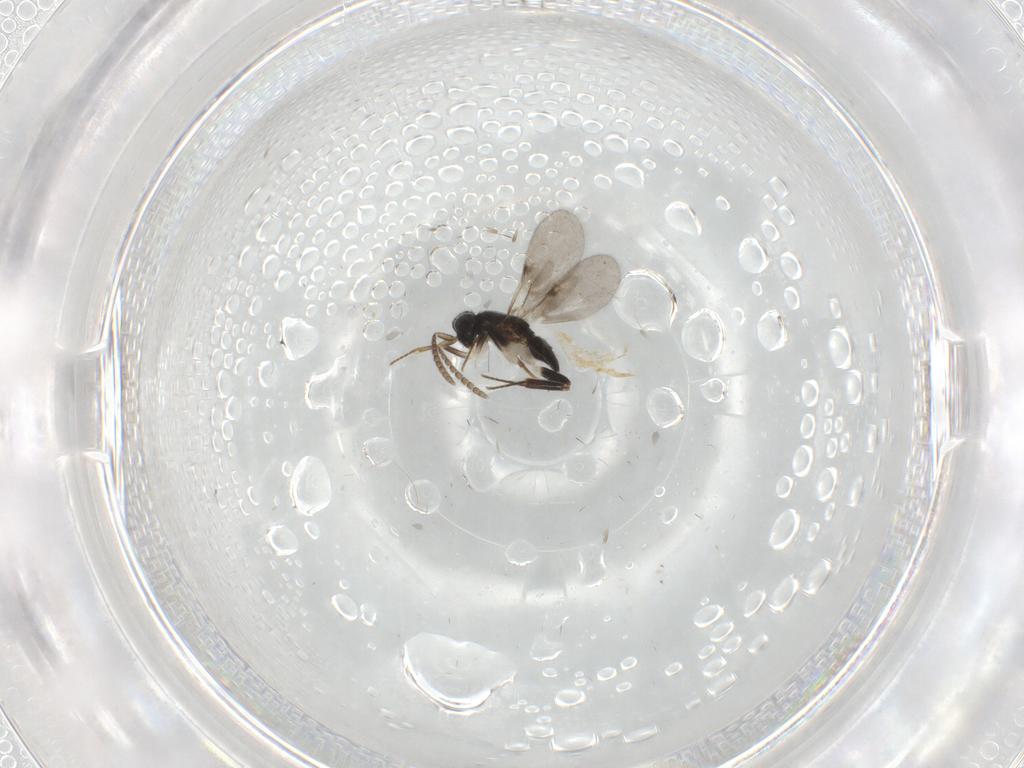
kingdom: Animalia
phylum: Arthropoda
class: Insecta
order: Hymenoptera
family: Encyrtidae
